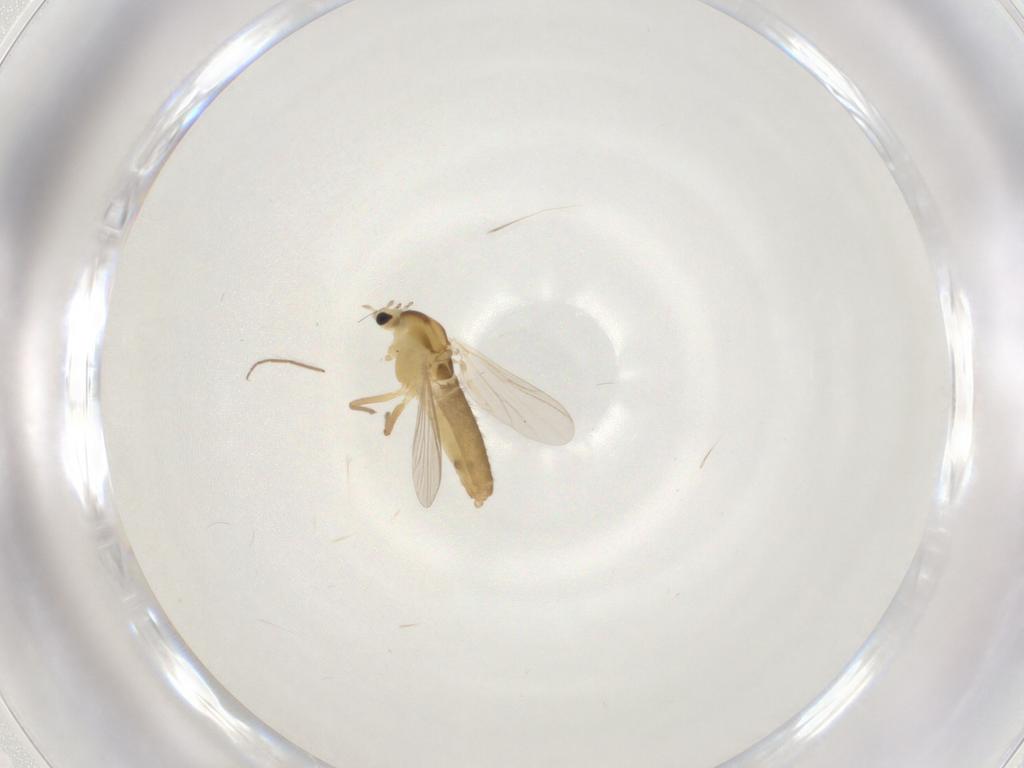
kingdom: Animalia
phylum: Arthropoda
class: Insecta
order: Diptera
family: Chironomidae
